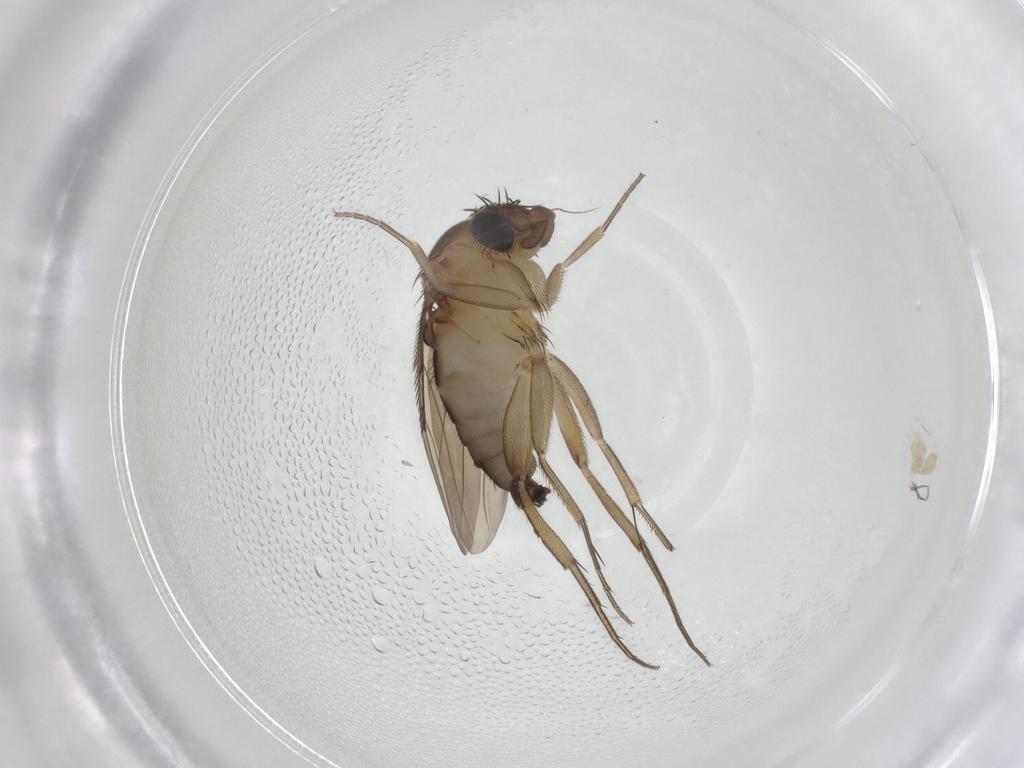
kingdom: Animalia
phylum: Arthropoda
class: Insecta
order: Diptera
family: Phoridae
